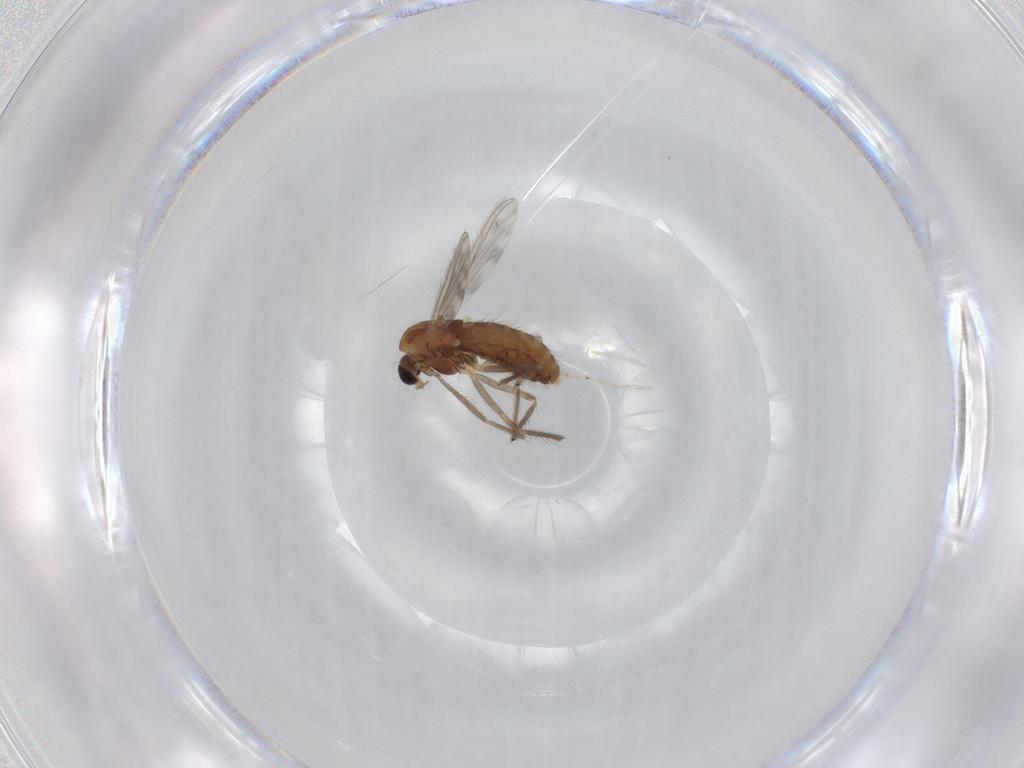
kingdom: Animalia
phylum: Arthropoda
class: Insecta
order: Diptera
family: Chironomidae
